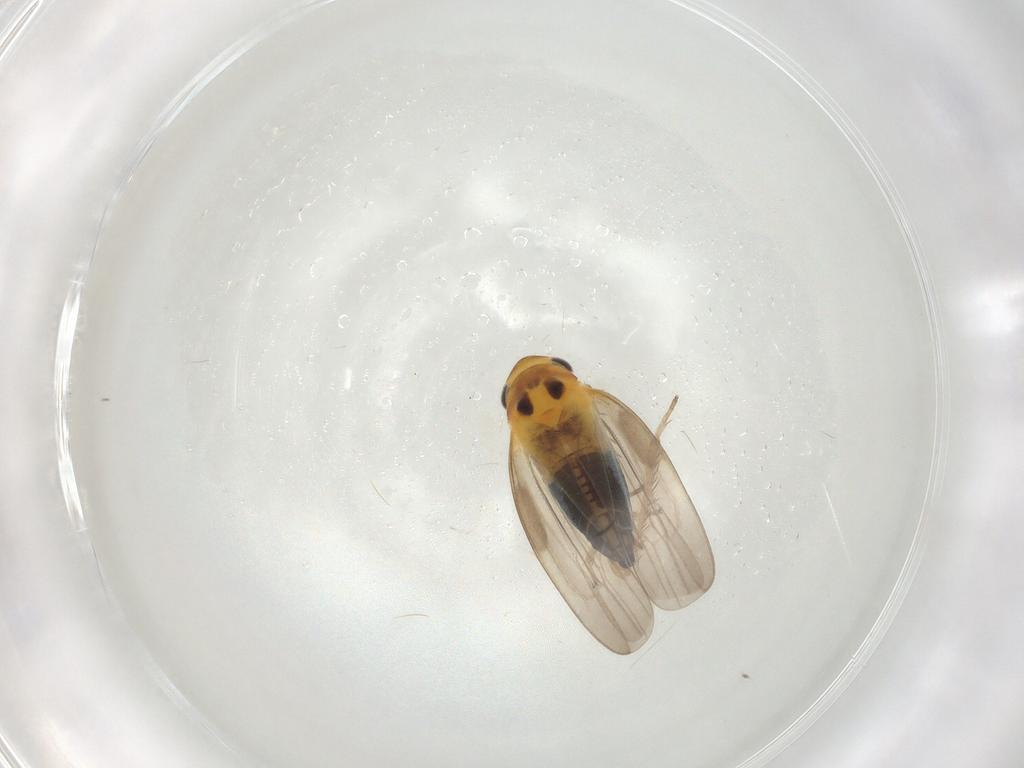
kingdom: Animalia
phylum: Arthropoda
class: Insecta
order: Hemiptera
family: Cicadellidae
